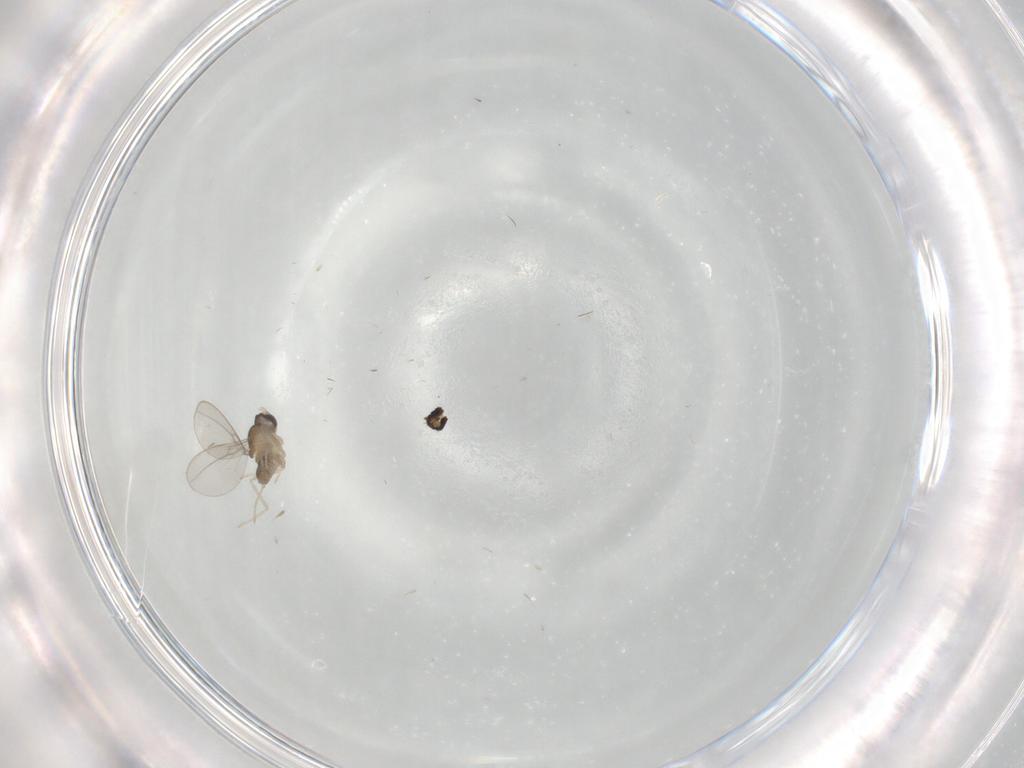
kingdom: Animalia
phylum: Arthropoda
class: Insecta
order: Diptera
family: Cecidomyiidae
